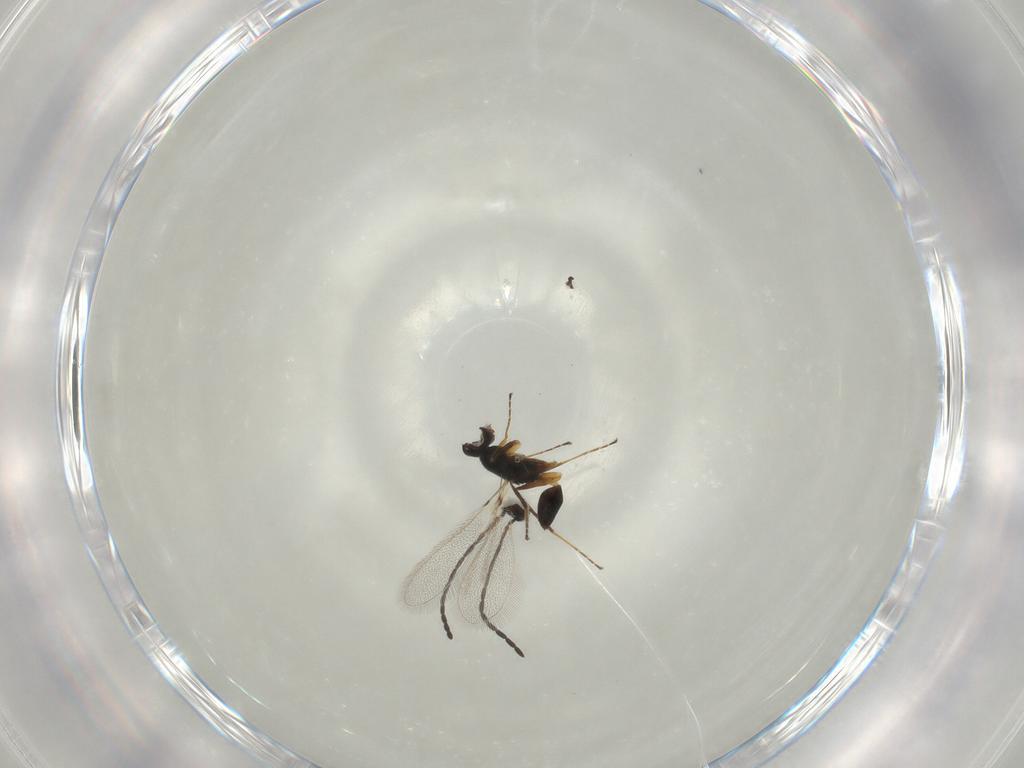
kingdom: Animalia
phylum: Arthropoda
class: Insecta
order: Hymenoptera
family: Mymaridae
